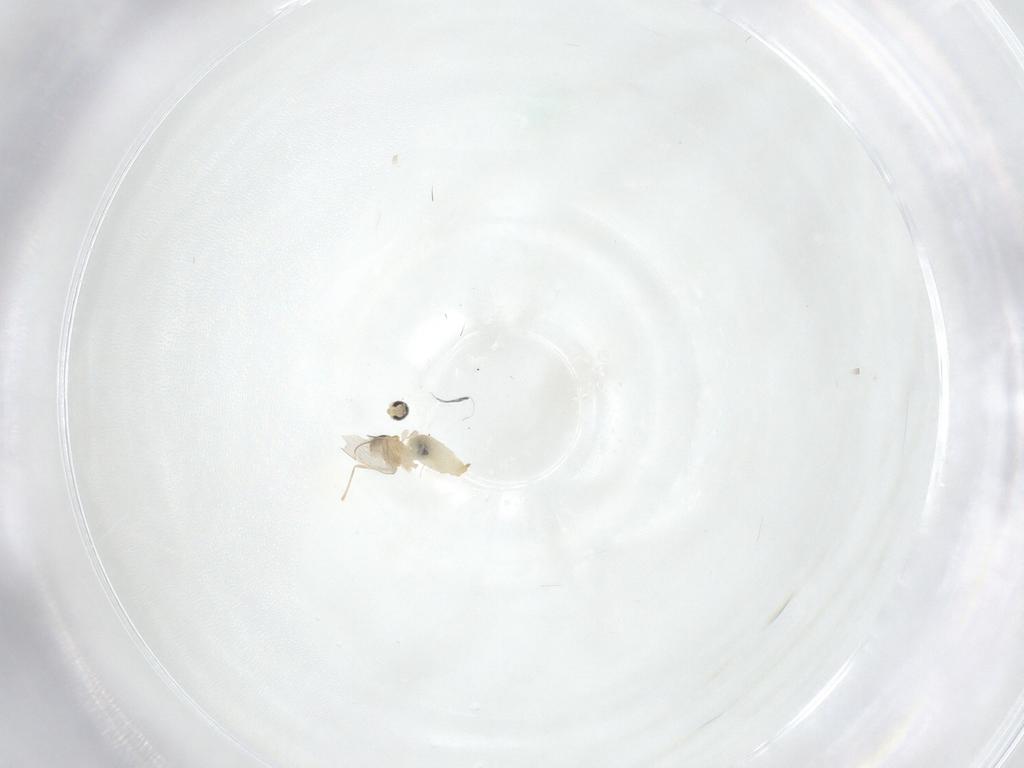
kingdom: Animalia
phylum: Arthropoda
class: Insecta
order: Diptera
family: Cecidomyiidae
